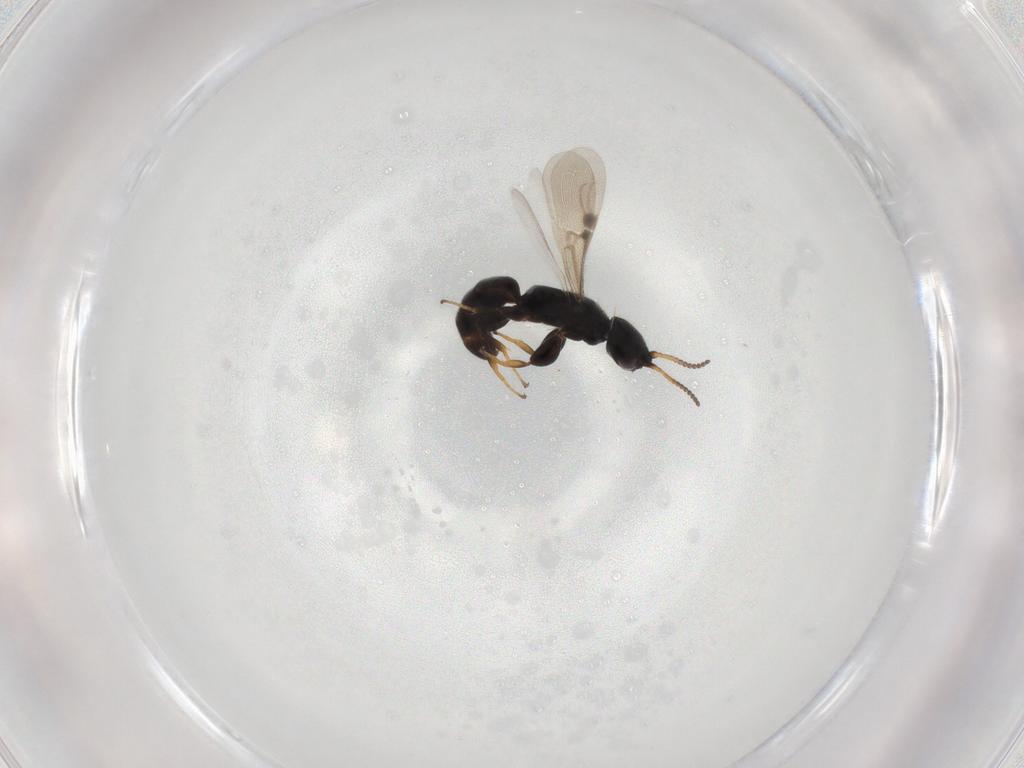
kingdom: Animalia
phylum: Arthropoda
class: Insecta
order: Hymenoptera
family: Bethylidae
